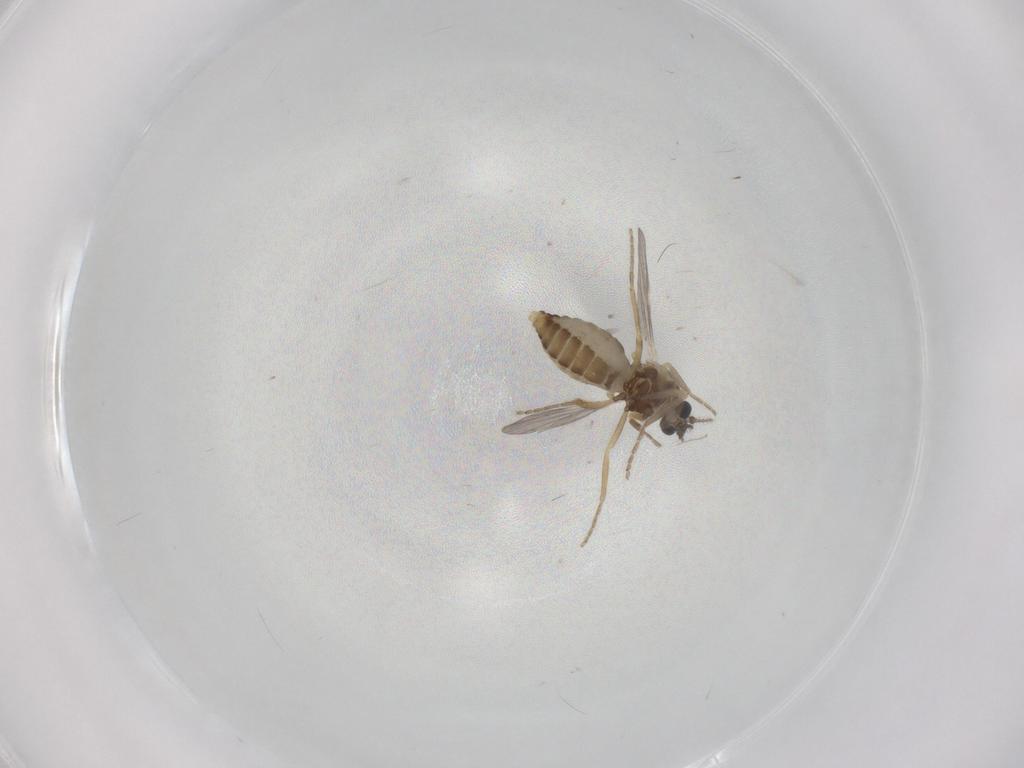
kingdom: Animalia
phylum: Arthropoda
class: Insecta
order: Diptera
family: Ceratopogonidae
